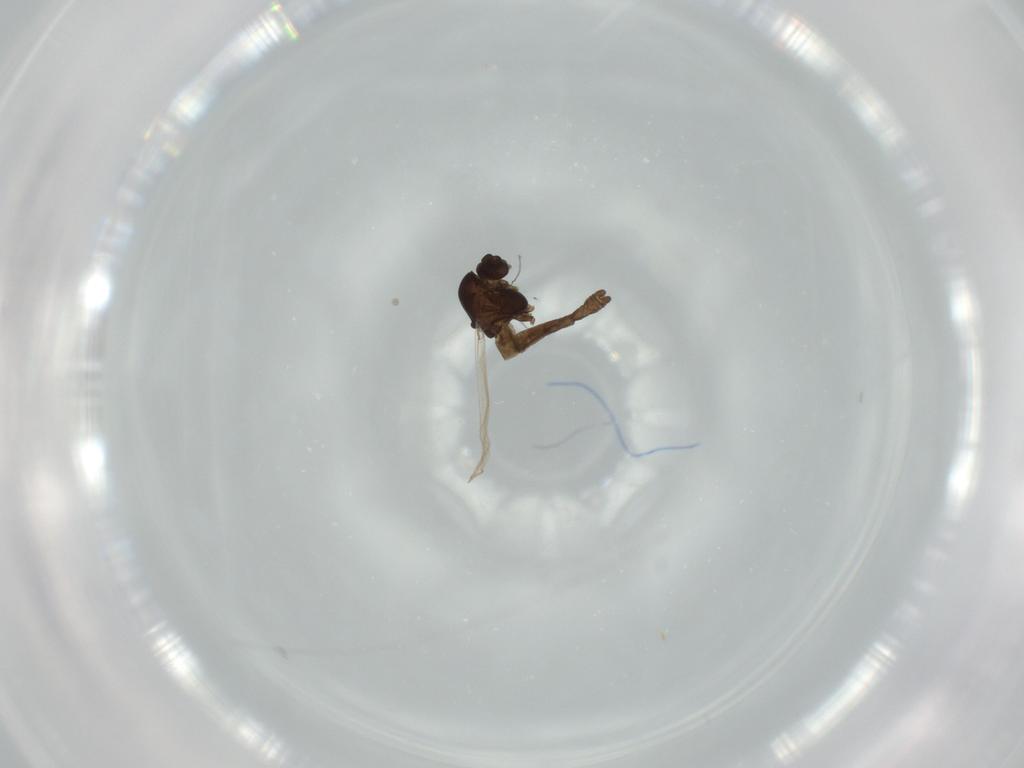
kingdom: Animalia
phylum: Arthropoda
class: Insecta
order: Diptera
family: Chironomidae
